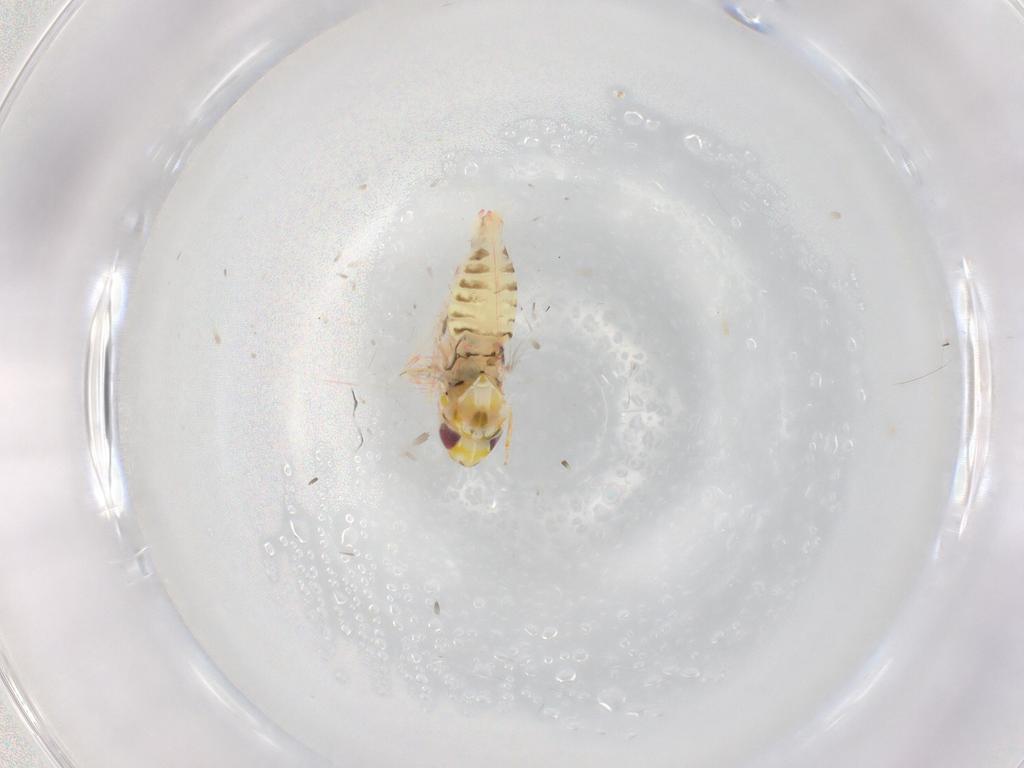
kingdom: Animalia
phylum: Arthropoda
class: Insecta
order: Hemiptera
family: Cicadellidae
